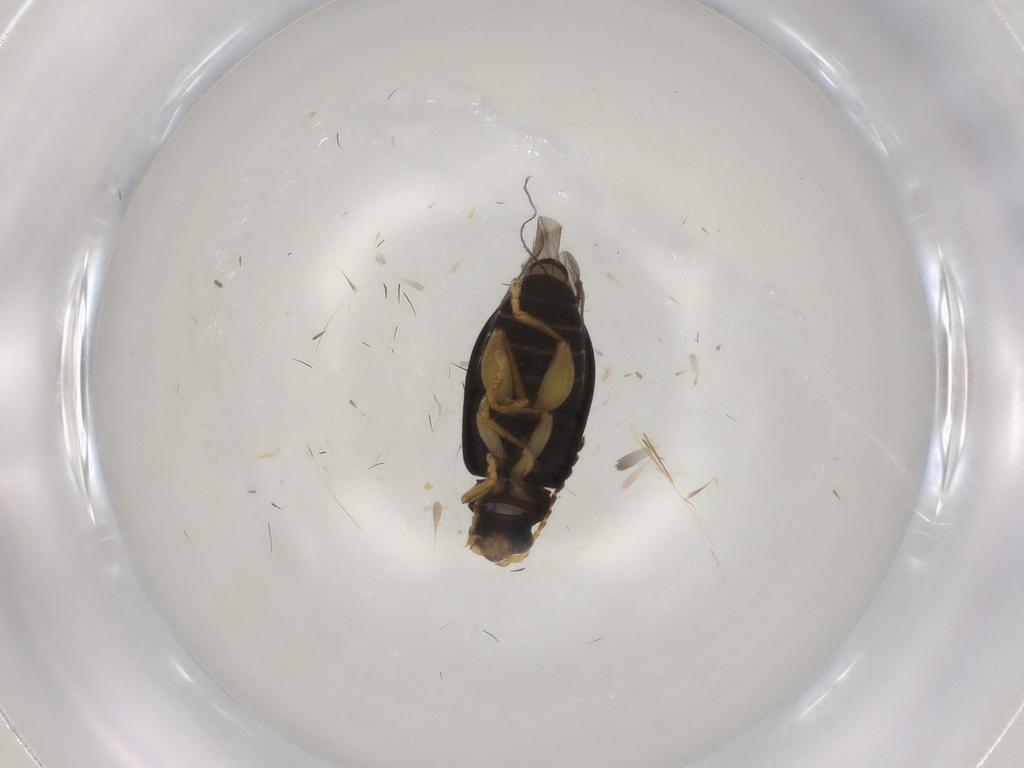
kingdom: Animalia
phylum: Arthropoda
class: Insecta
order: Coleoptera
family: Chrysomelidae
